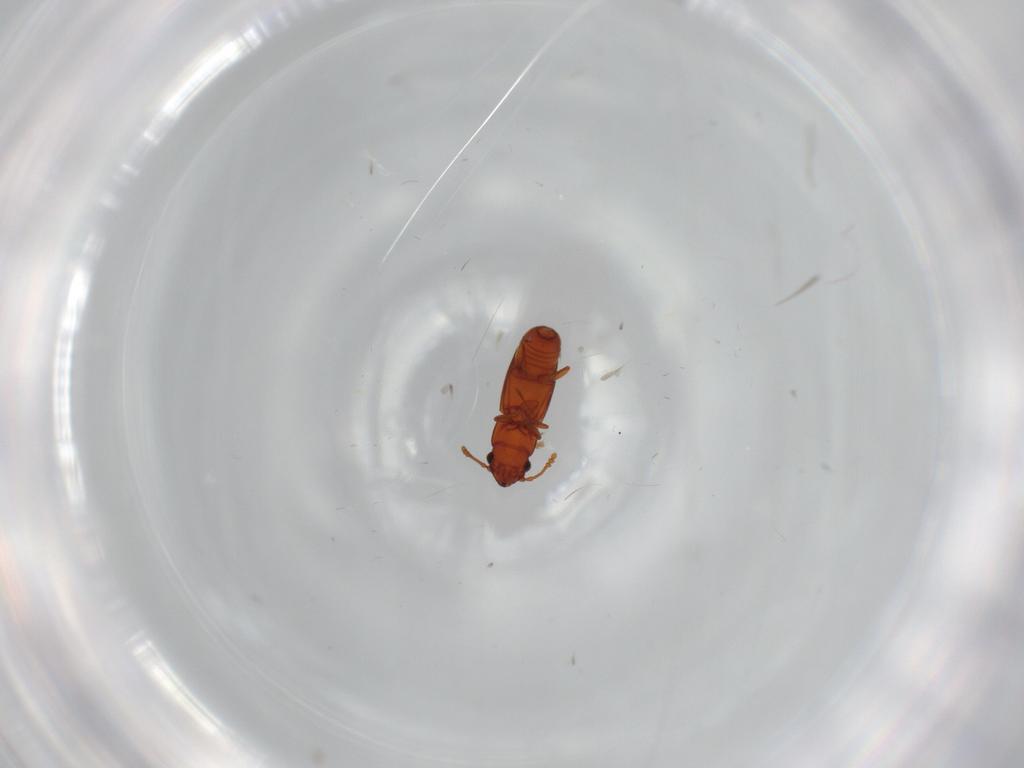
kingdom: Animalia
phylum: Arthropoda
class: Insecta
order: Coleoptera
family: Smicripidae
